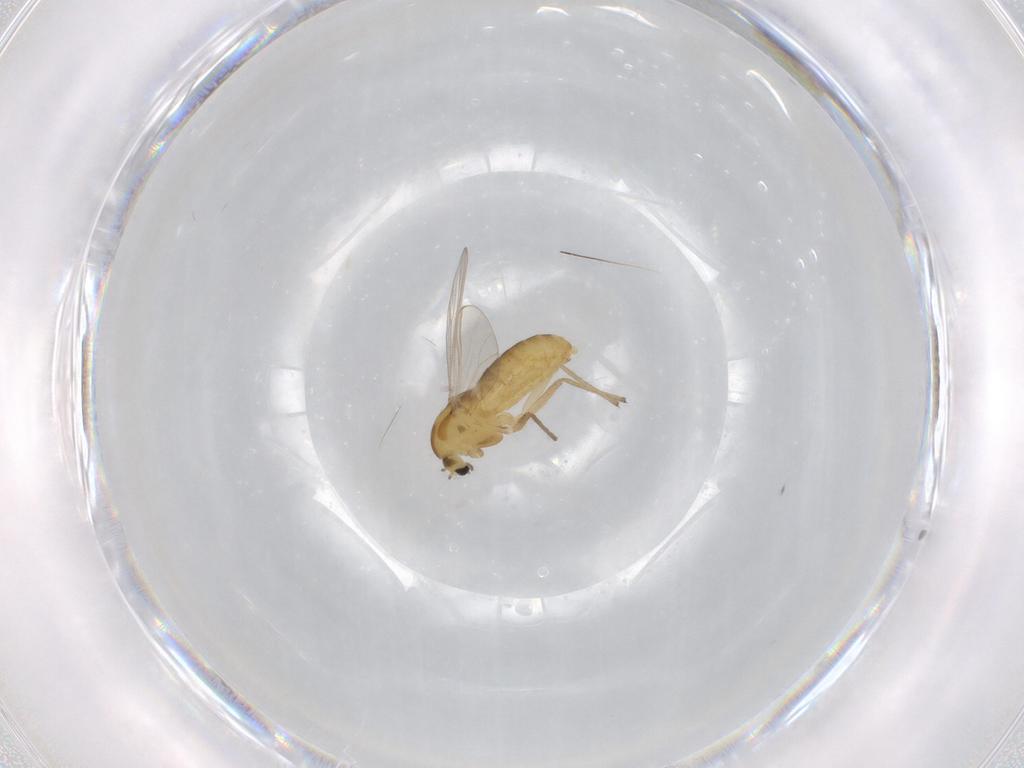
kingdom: Animalia
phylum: Arthropoda
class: Insecta
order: Diptera
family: Chironomidae
